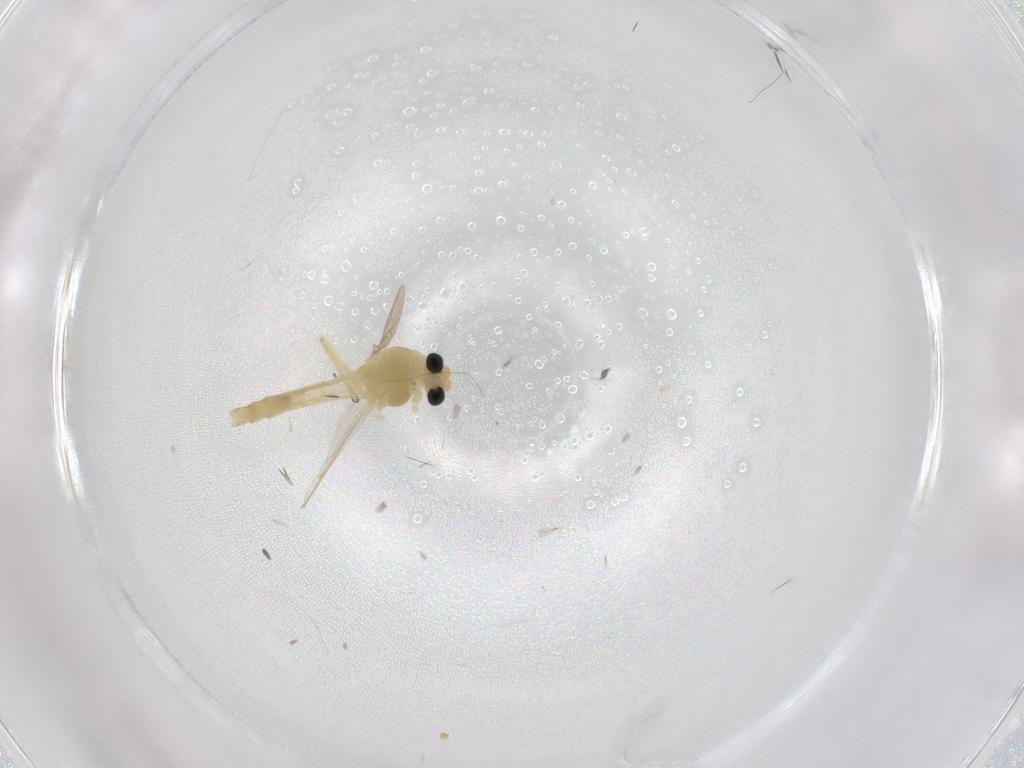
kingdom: Animalia
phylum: Arthropoda
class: Insecta
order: Diptera
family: Chironomidae
